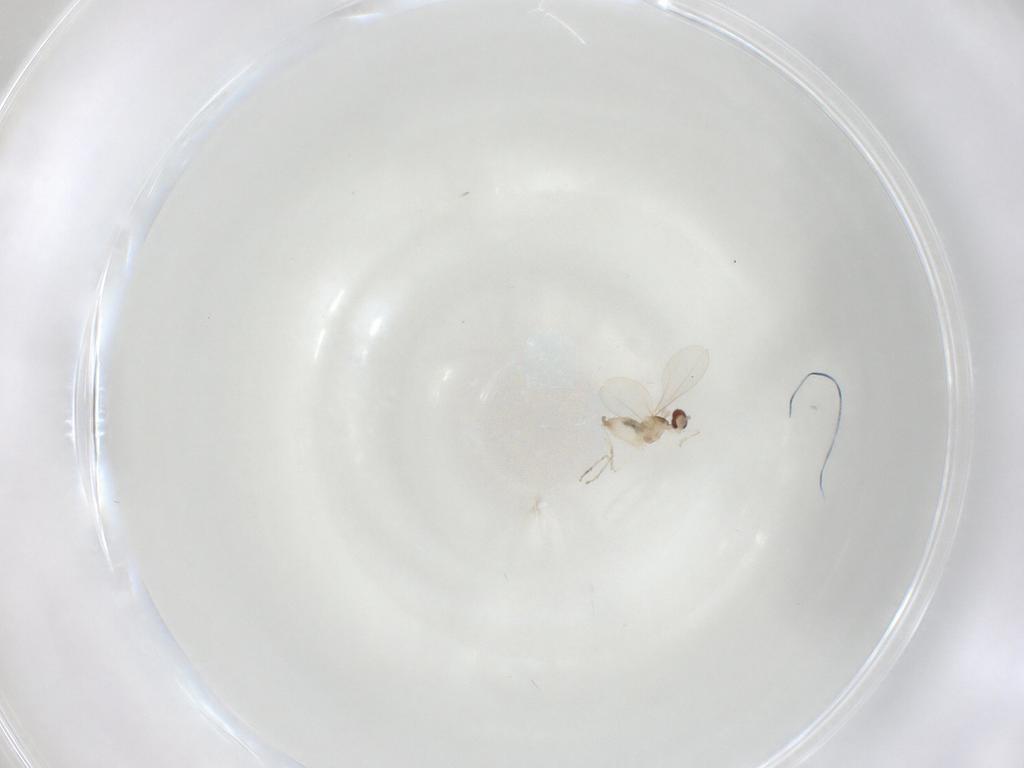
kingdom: Animalia
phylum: Arthropoda
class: Insecta
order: Diptera
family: Cecidomyiidae
